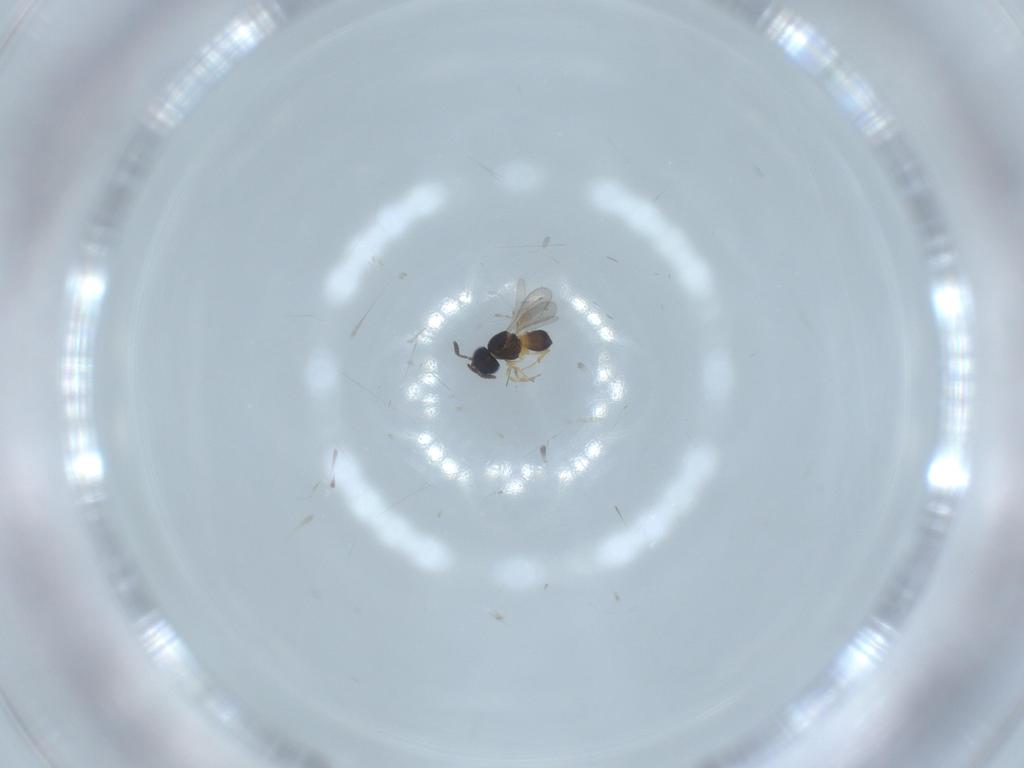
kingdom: Animalia
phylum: Arthropoda
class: Insecta
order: Hymenoptera
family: Scelionidae
